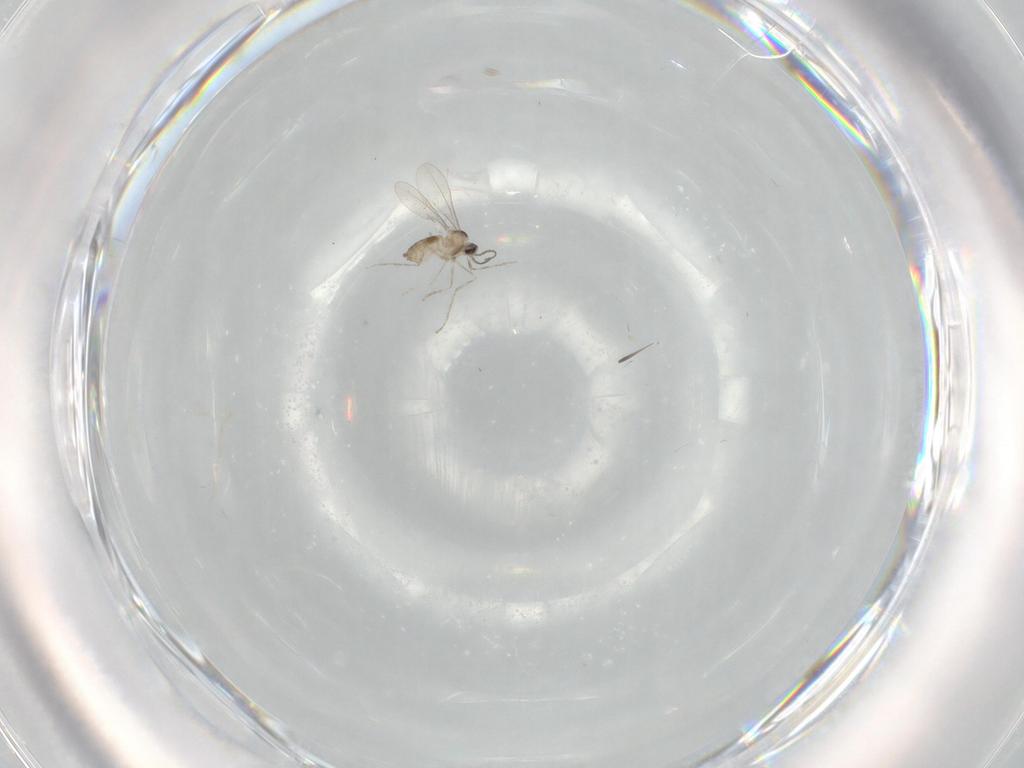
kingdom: Animalia
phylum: Arthropoda
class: Insecta
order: Diptera
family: Cecidomyiidae
